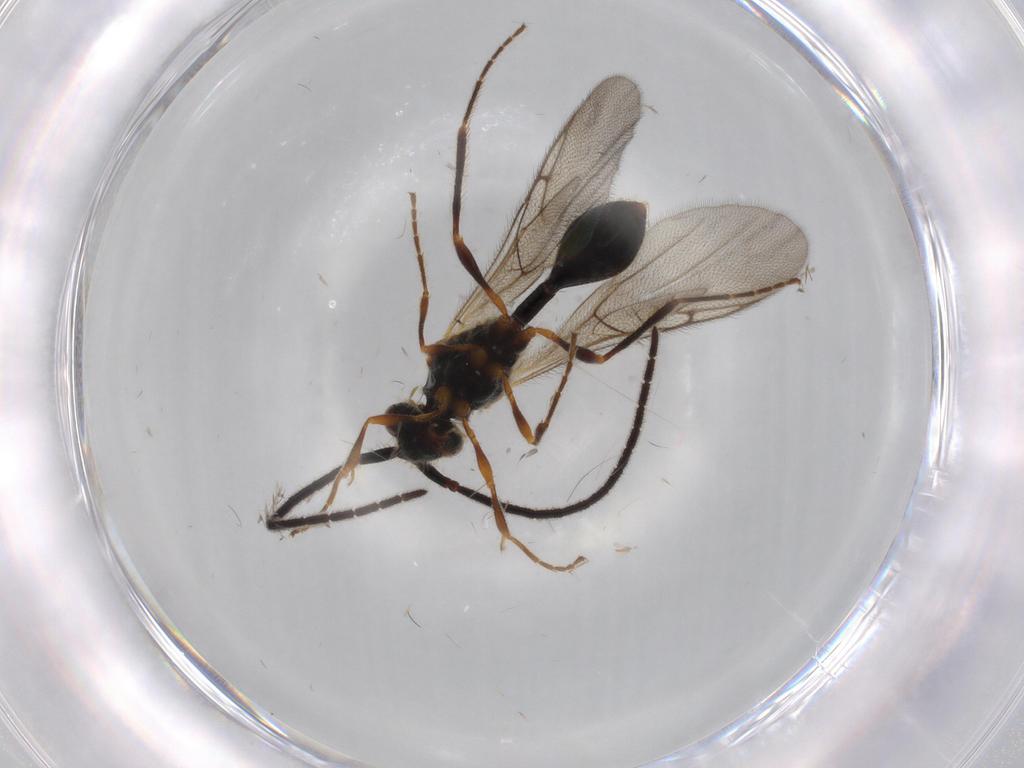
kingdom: Animalia
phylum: Arthropoda
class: Insecta
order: Hymenoptera
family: Formicidae
